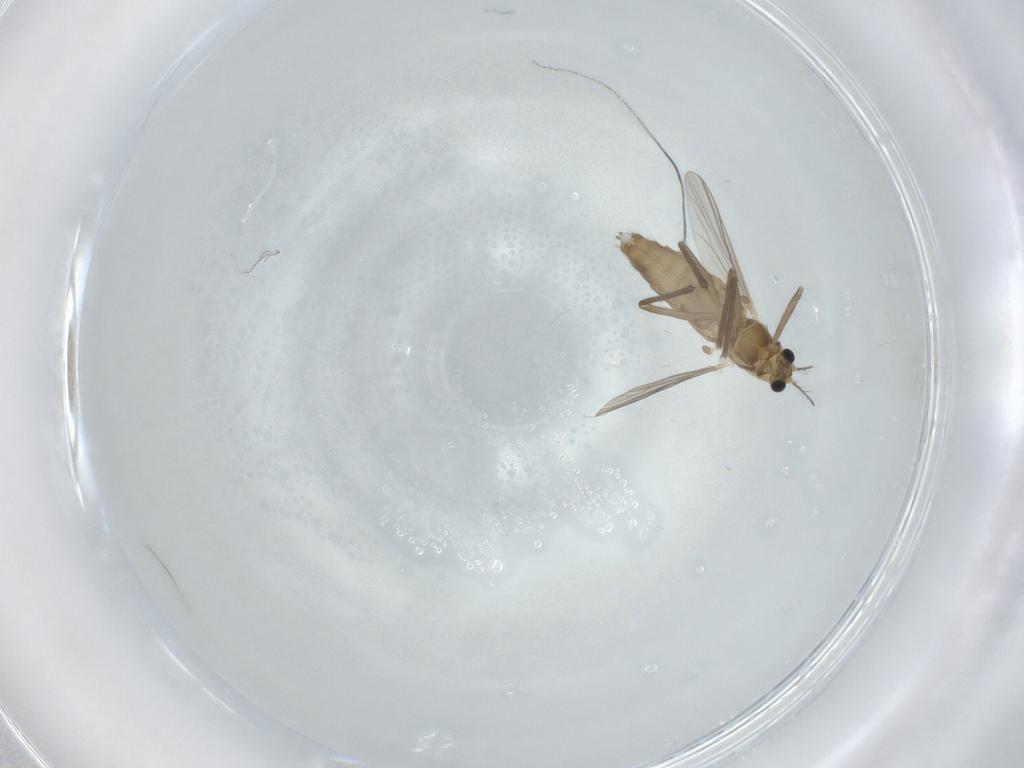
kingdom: Animalia
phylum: Arthropoda
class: Insecta
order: Diptera
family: Chironomidae
